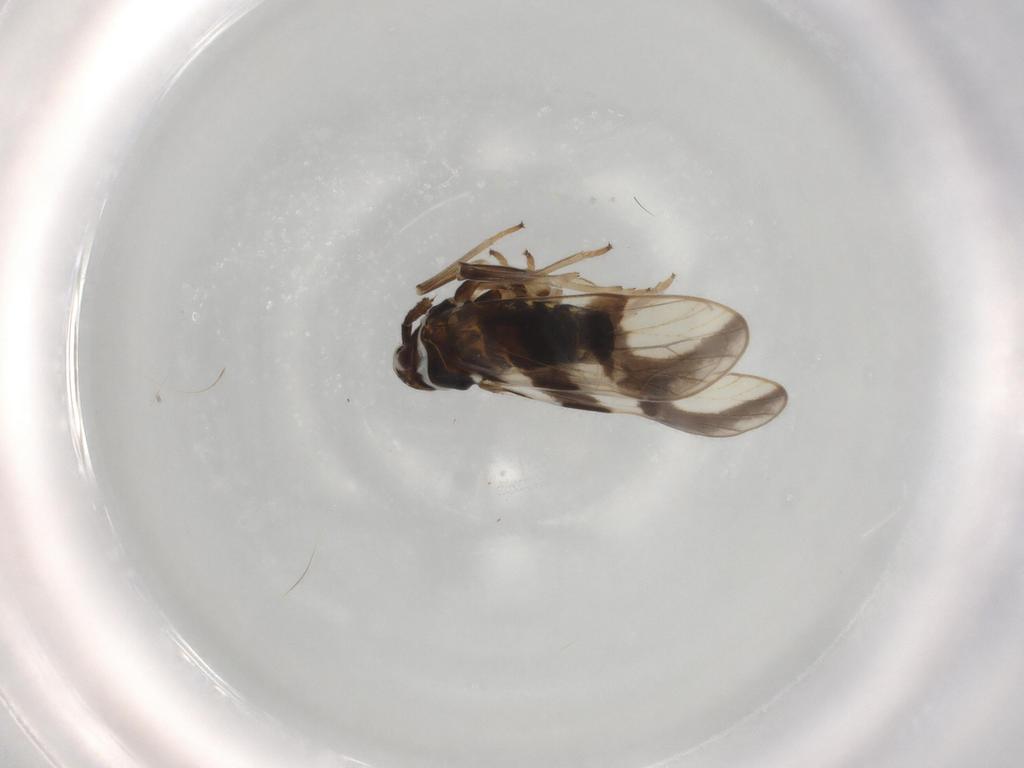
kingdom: Animalia
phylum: Arthropoda
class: Insecta
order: Hemiptera
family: Delphacidae
